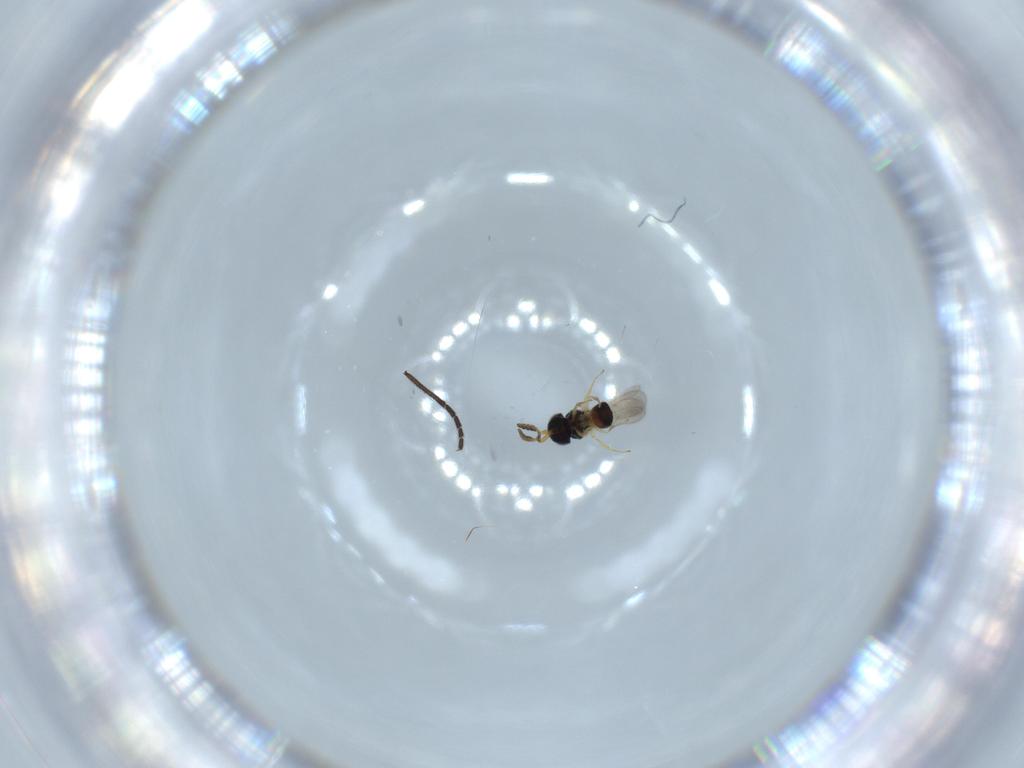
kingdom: Animalia
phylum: Arthropoda
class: Insecta
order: Hymenoptera
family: Scelionidae
